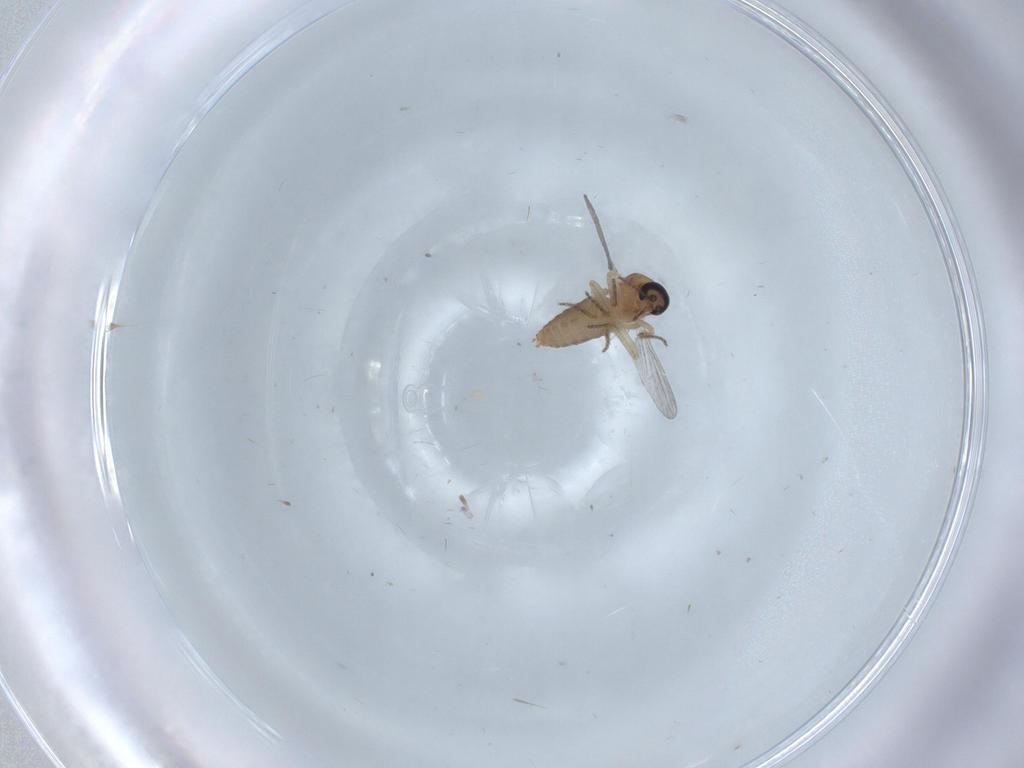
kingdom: Animalia
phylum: Arthropoda
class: Insecta
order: Diptera
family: Ceratopogonidae
